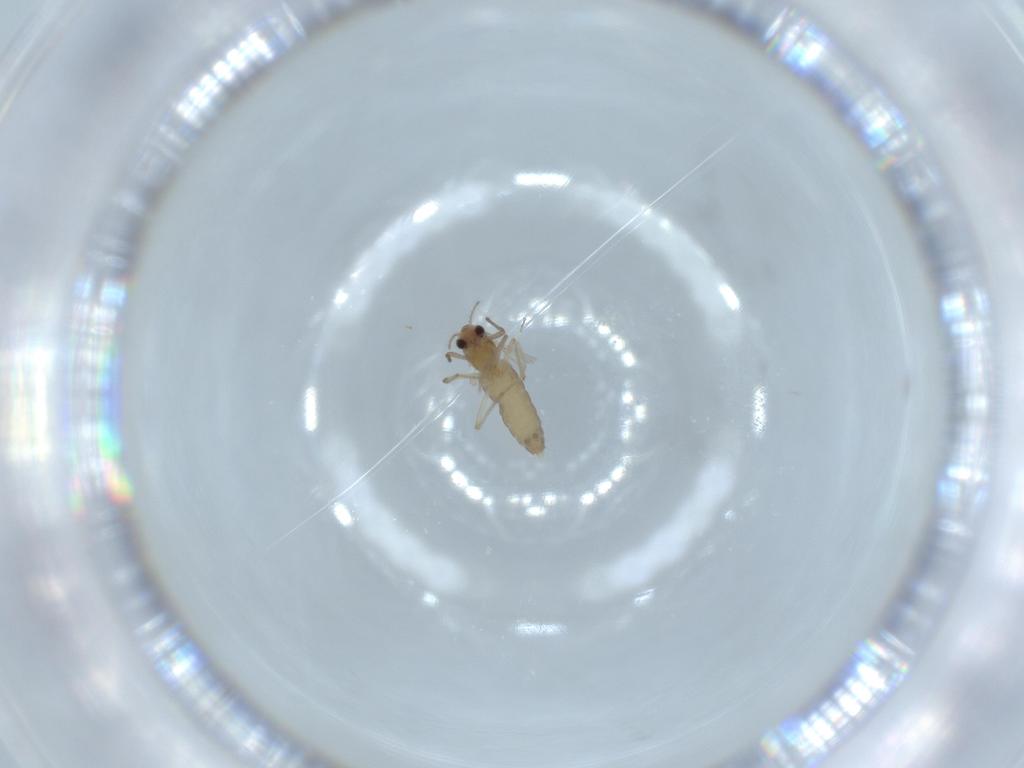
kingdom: Animalia
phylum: Arthropoda
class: Insecta
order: Diptera
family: Chironomidae
